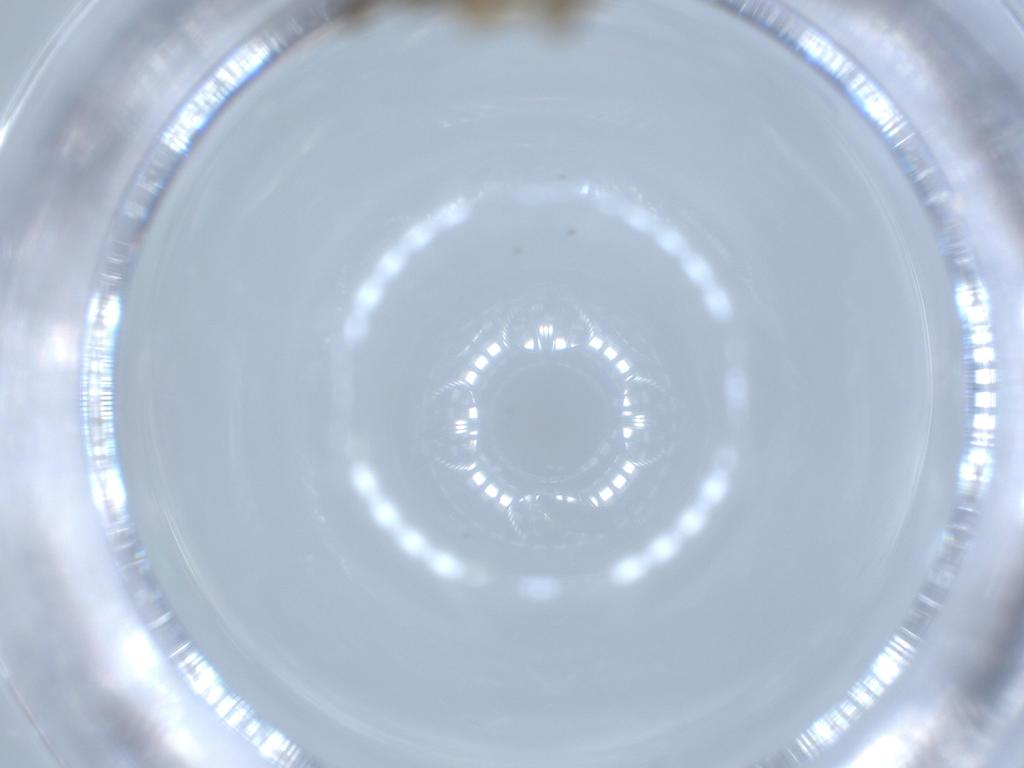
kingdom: Animalia
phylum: Arthropoda
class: Insecta
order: Lepidoptera
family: Tineidae
